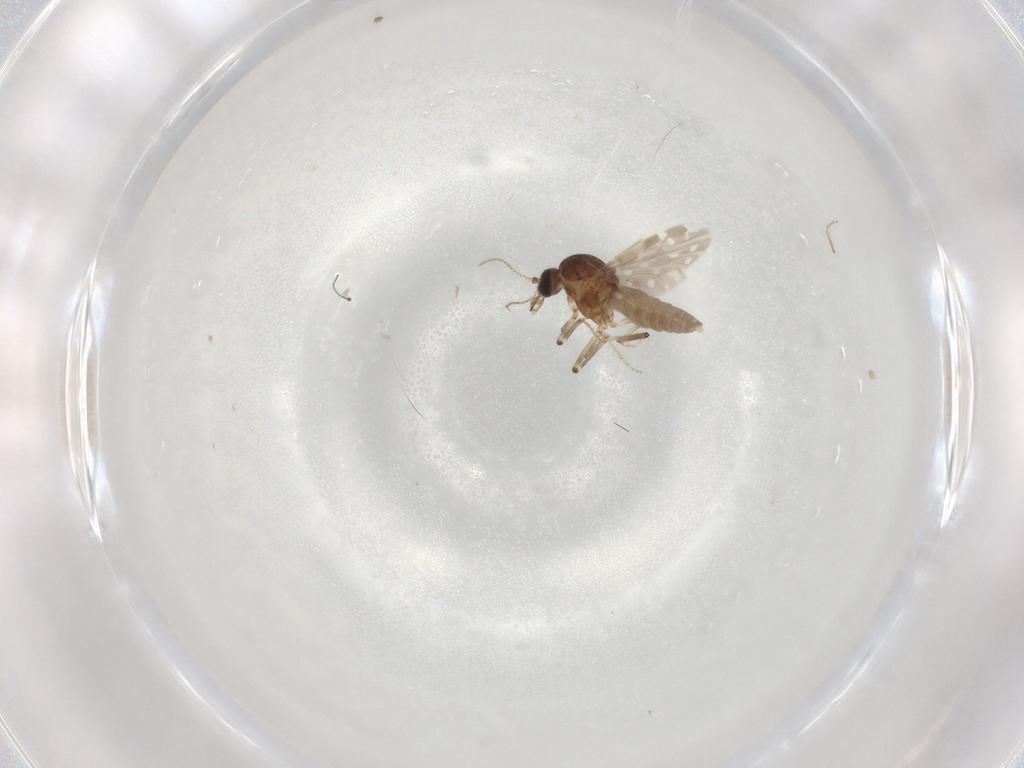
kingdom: Animalia
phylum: Arthropoda
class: Insecta
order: Diptera
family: Ceratopogonidae
